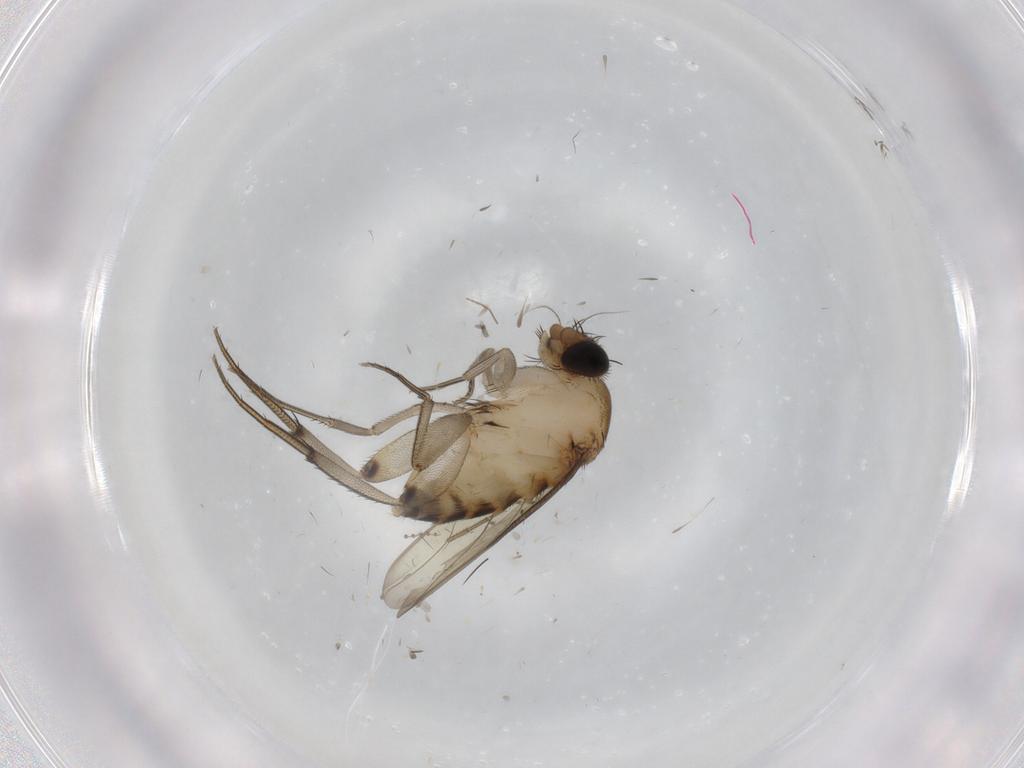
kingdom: Animalia
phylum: Arthropoda
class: Insecta
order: Diptera
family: Phoridae
